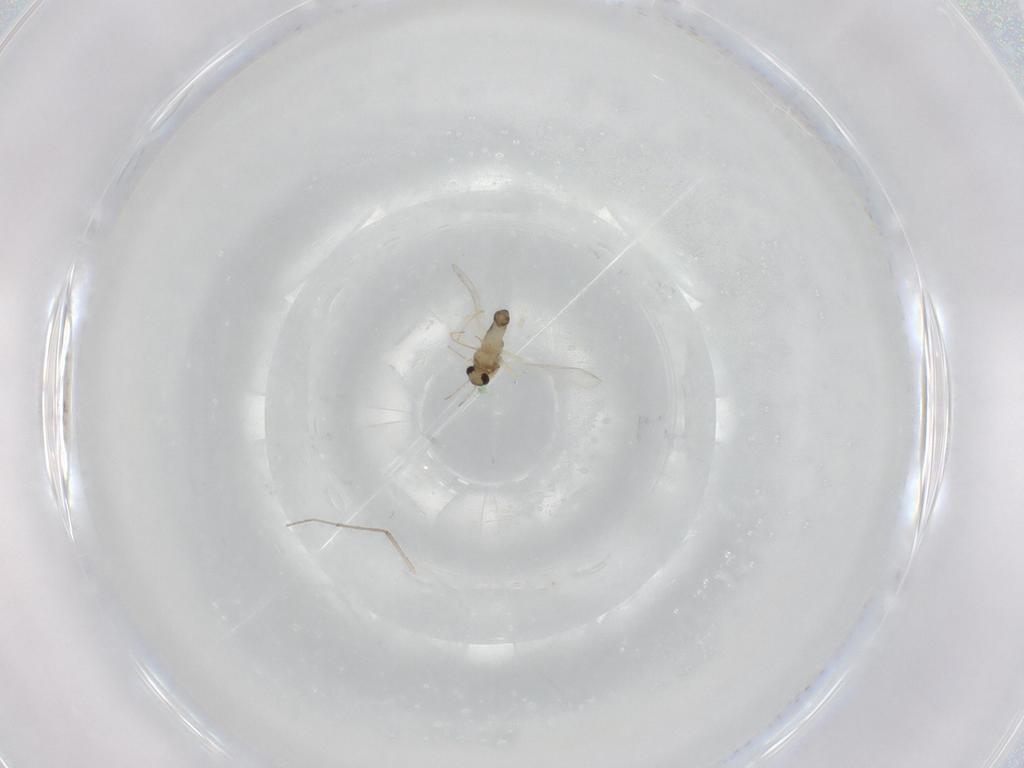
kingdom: Animalia
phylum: Arthropoda
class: Insecta
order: Diptera
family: Chironomidae
